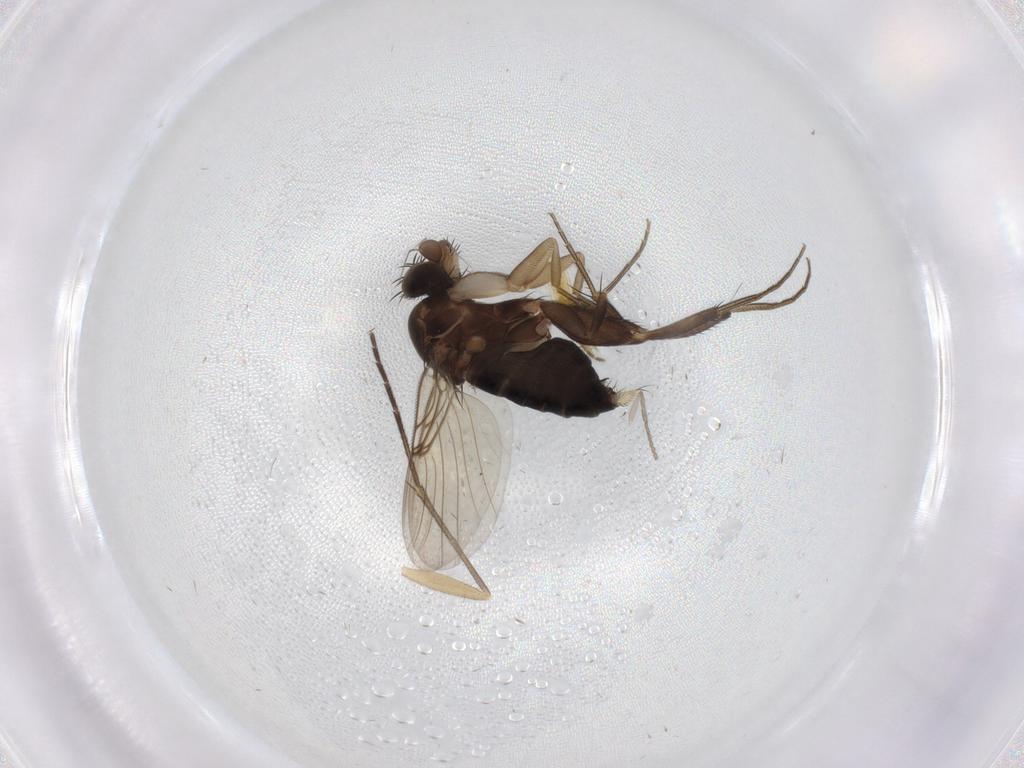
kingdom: Animalia
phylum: Arthropoda
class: Insecta
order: Diptera
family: Phoridae
